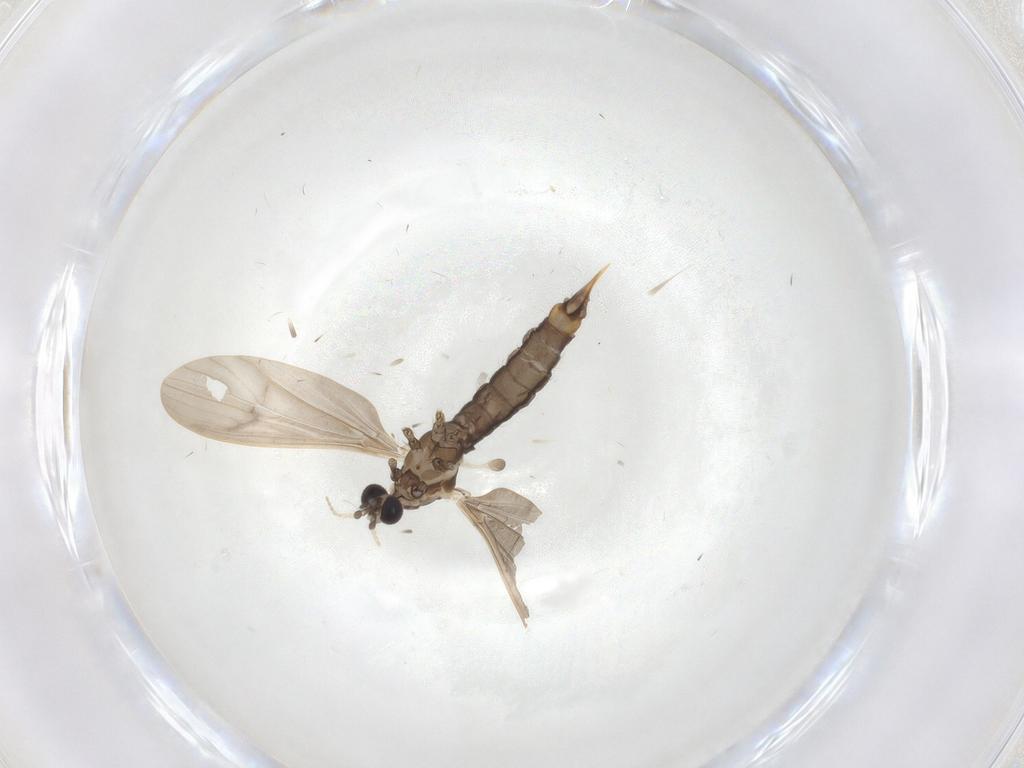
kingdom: Animalia
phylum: Arthropoda
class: Insecta
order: Diptera
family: Limoniidae
